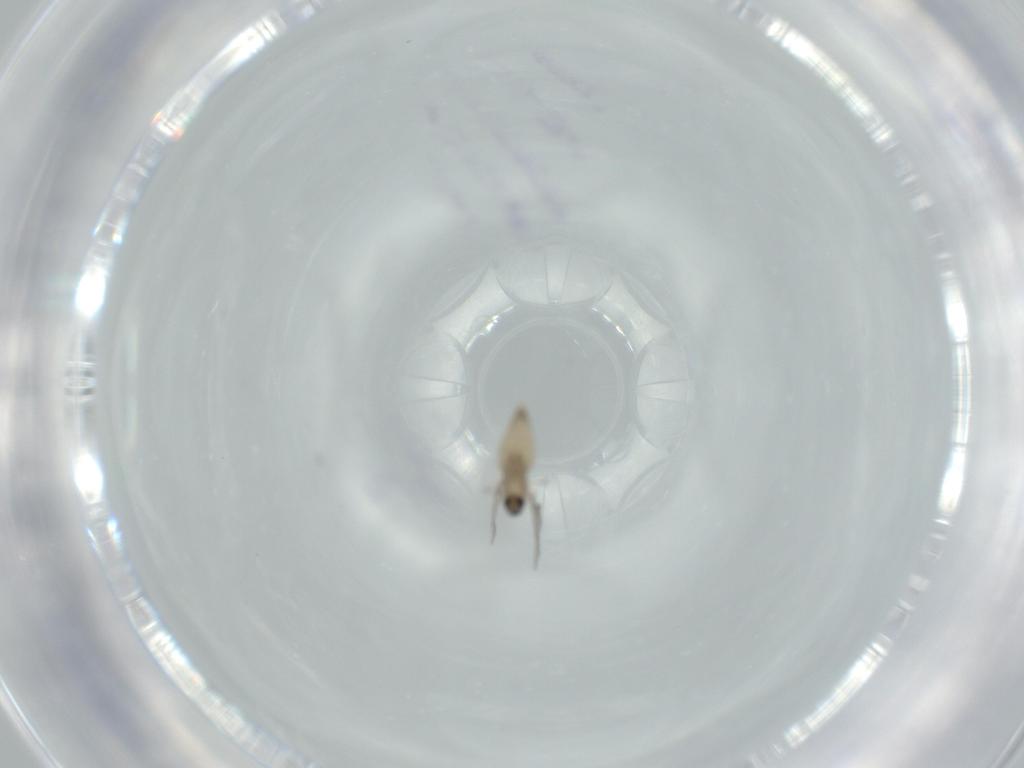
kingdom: Animalia
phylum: Arthropoda
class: Insecta
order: Diptera
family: Cecidomyiidae
